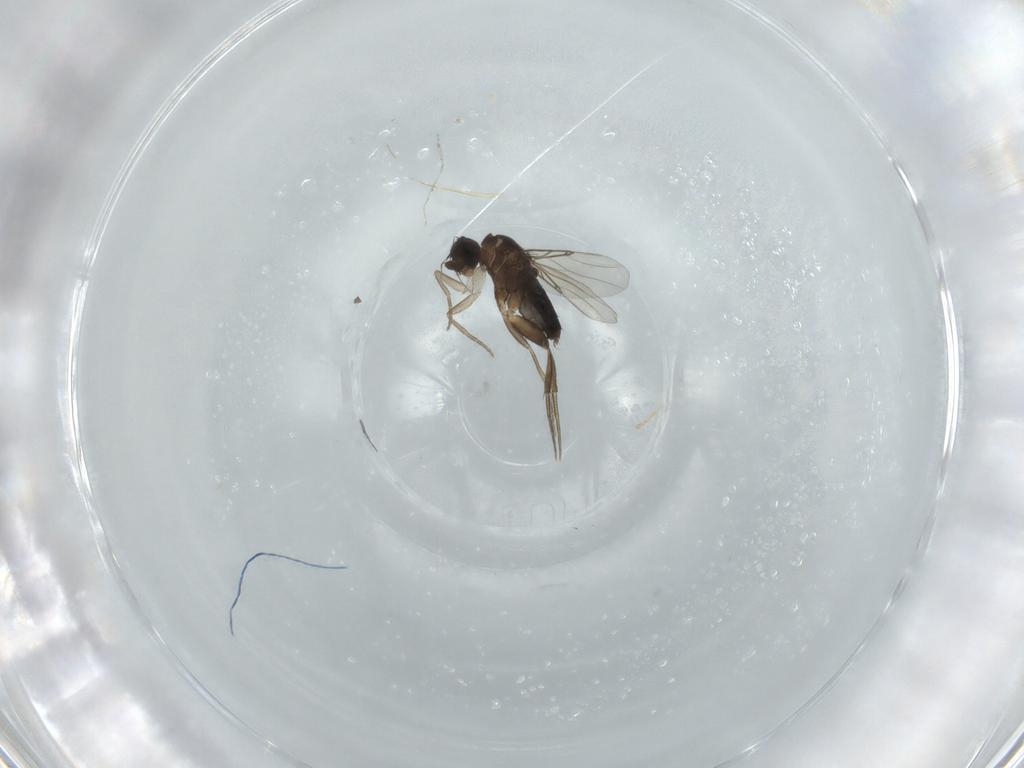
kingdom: Animalia
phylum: Arthropoda
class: Insecta
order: Diptera
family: Phoridae
